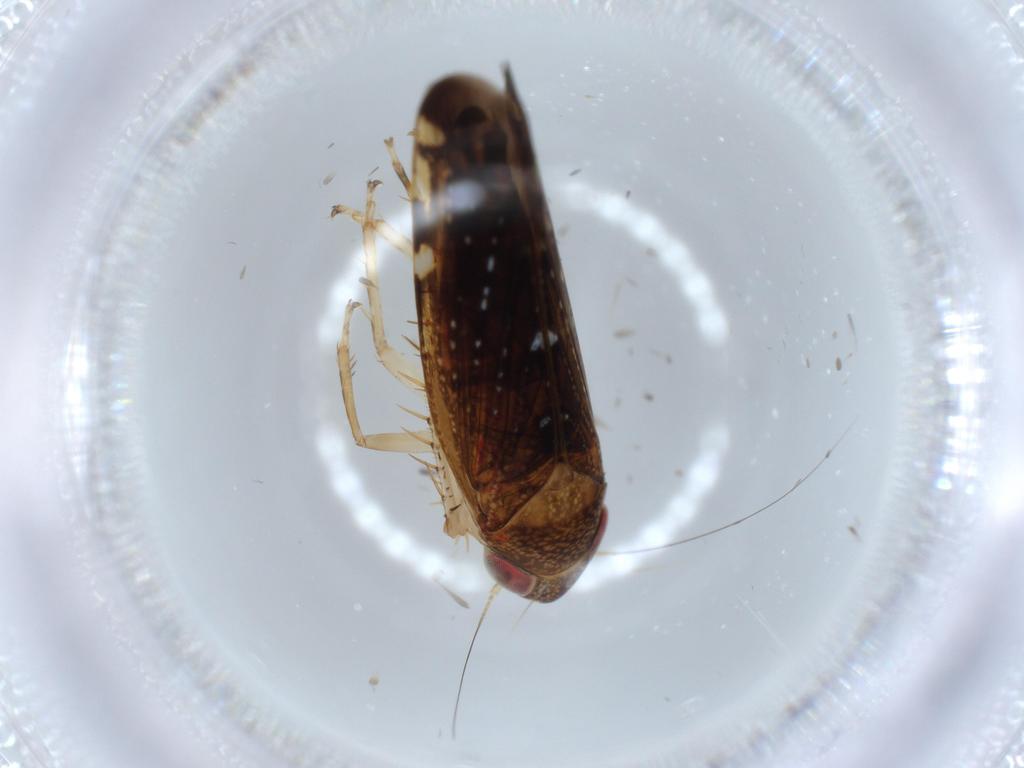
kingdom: Animalia
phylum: Arthropoda
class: Insecta
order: Hemiptera
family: Cicadellidae
